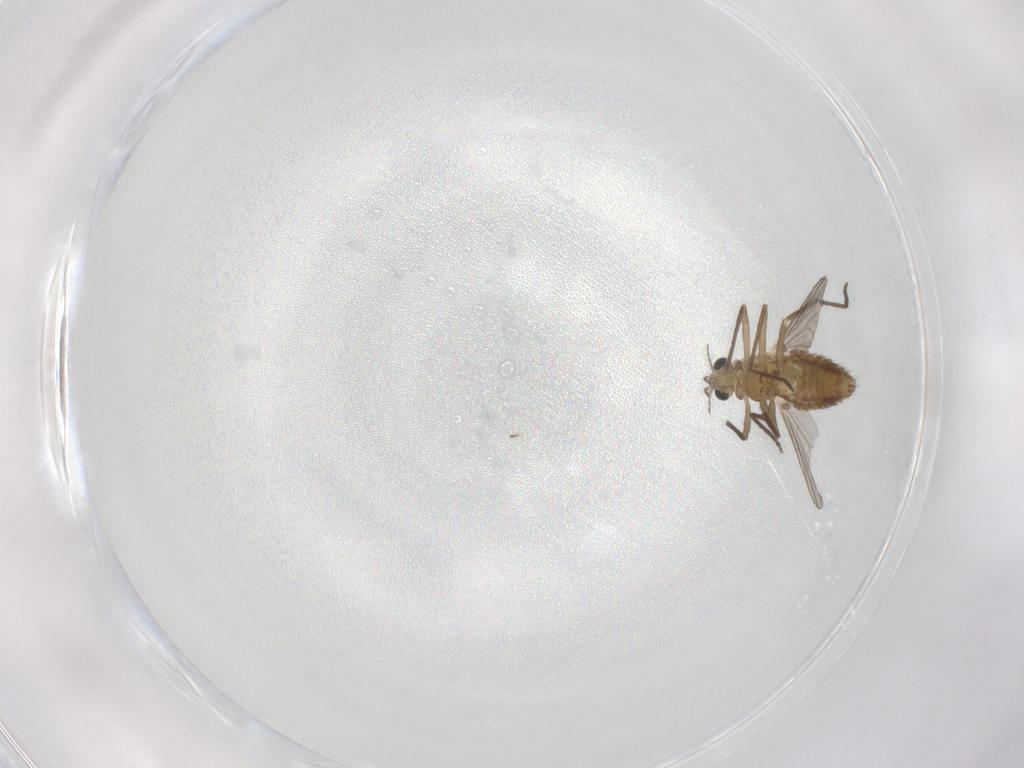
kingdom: Animalia
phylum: Arthropoda
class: Insecta
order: Diptera
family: Chironomidae
